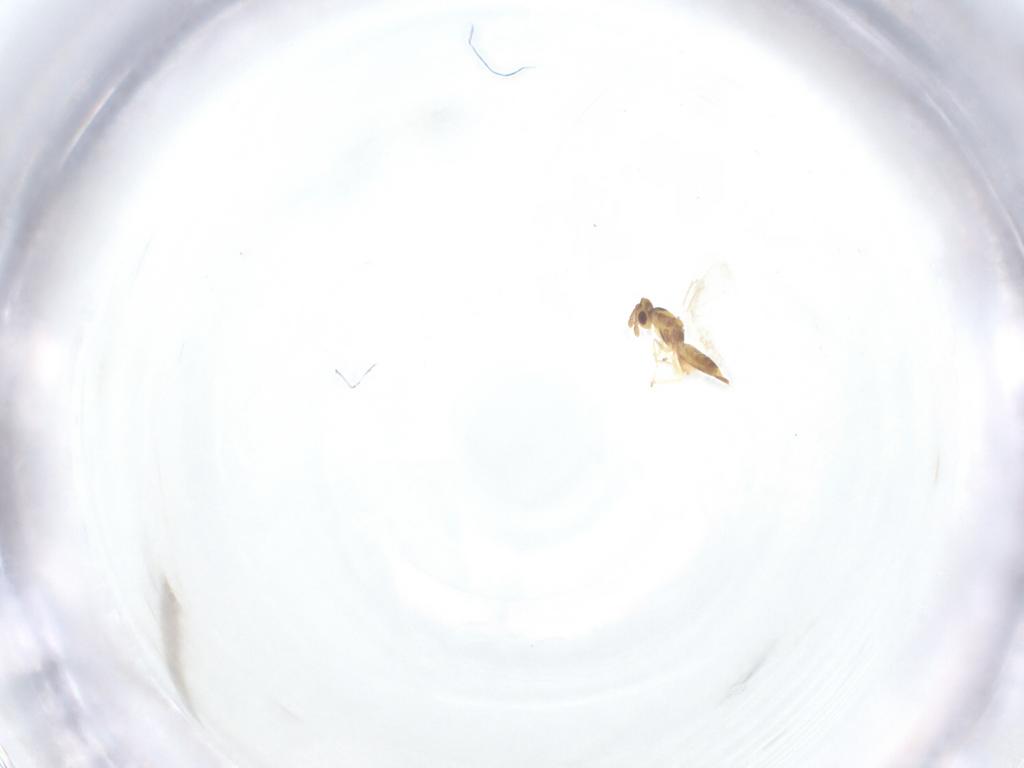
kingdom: Animalia
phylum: Arthropoda
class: Insecta
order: Hymenoptera
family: Eulophidae
